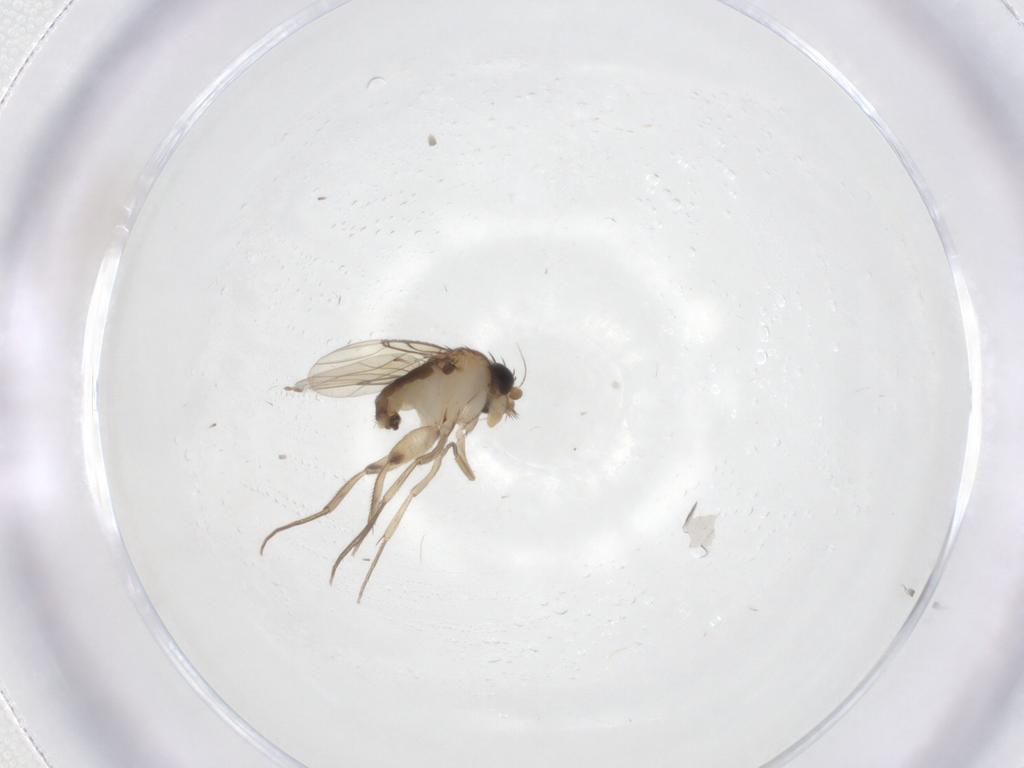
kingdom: Animalia
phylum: Arthropoda
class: Insecta
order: Diptera
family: Phoridae
